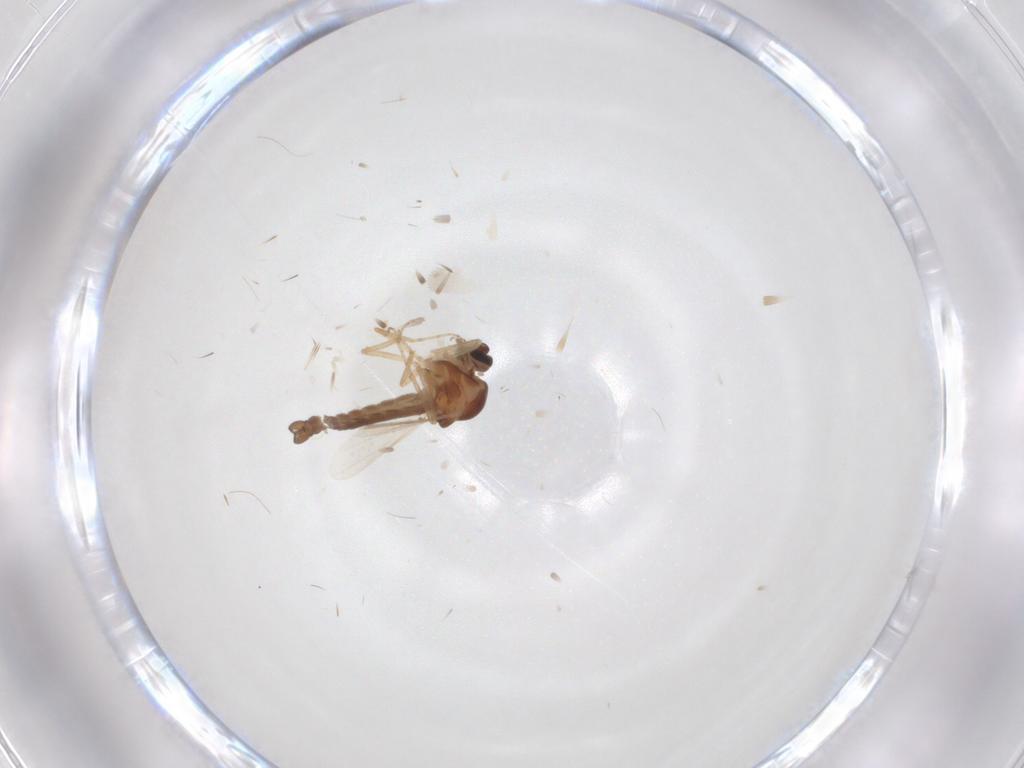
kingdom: Animalia
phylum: Arthropoda
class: Insecta
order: Diptera
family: Ceratopogonidae
